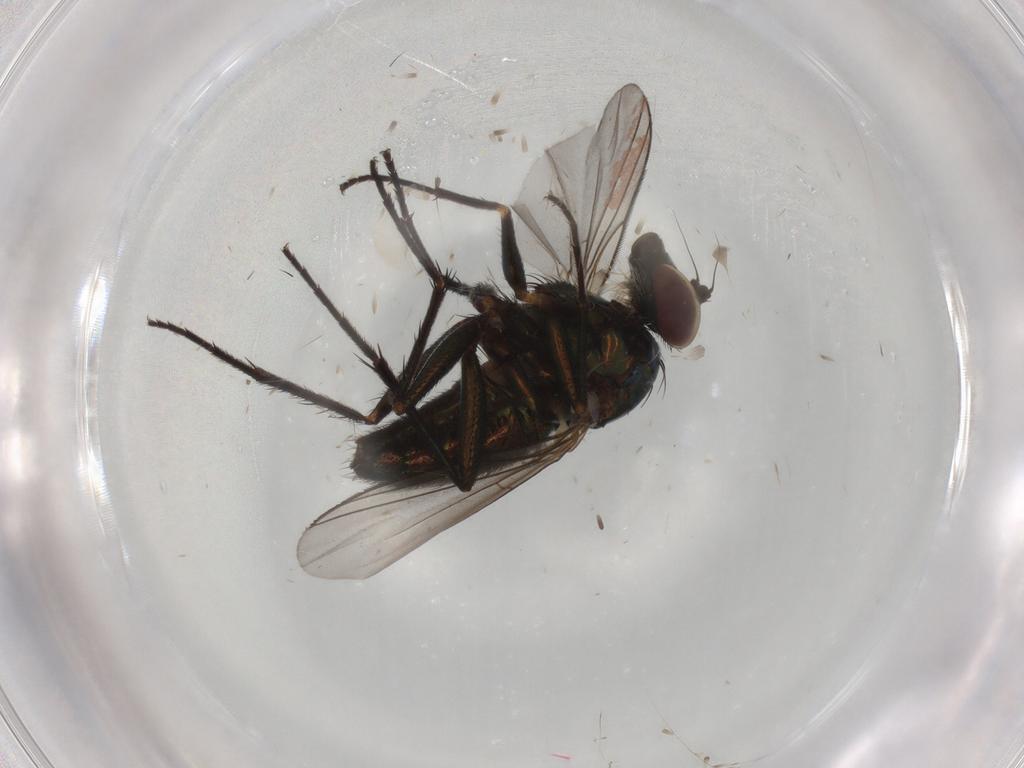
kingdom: Animalia
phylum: Arthropoda
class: Insecta
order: Diptera
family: Dolichopodidae
